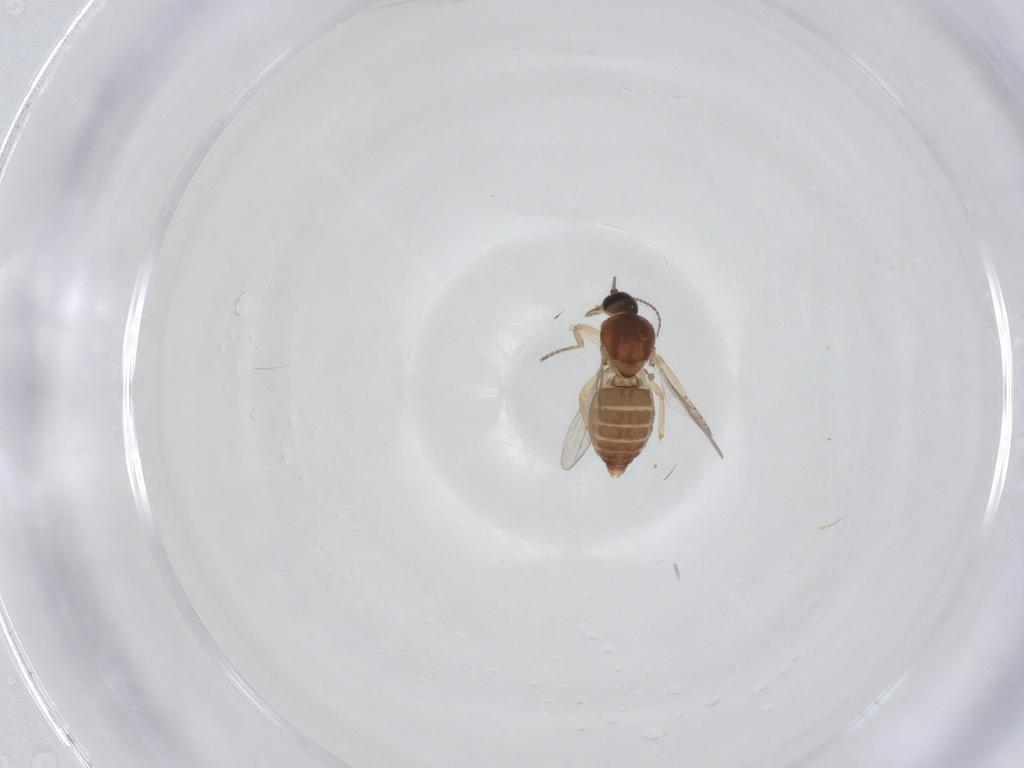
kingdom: Animalia
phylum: Arthropoda
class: Insecta
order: Diptera
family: Ceratopogonidae
